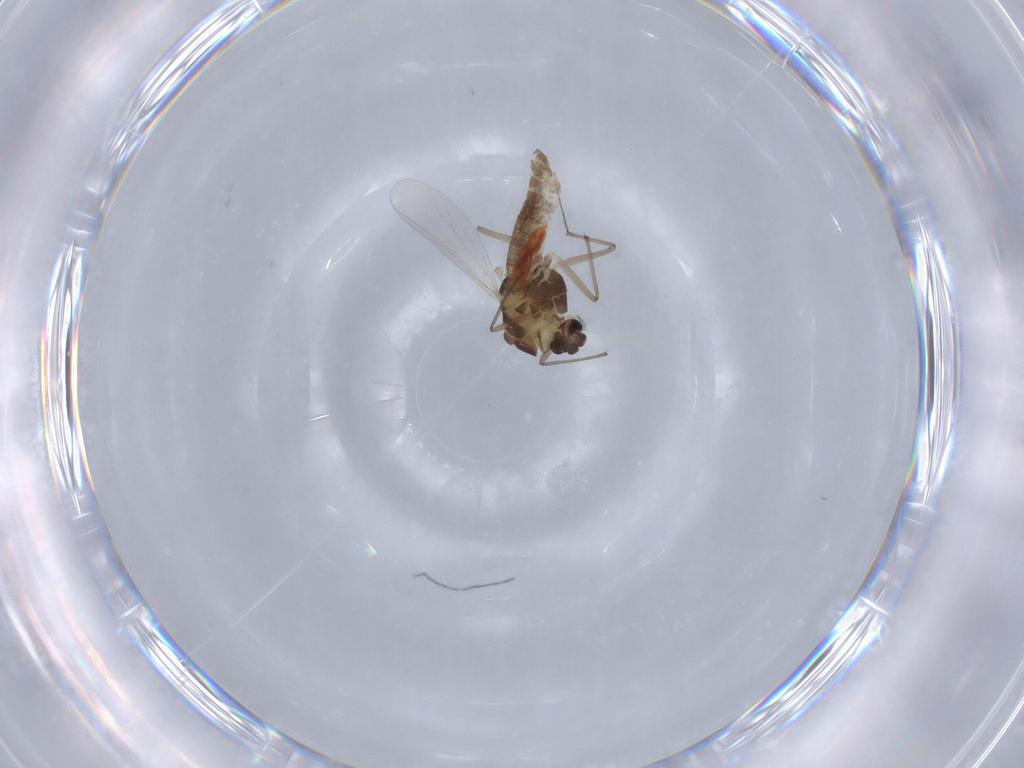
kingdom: Animalia
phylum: Arthropoda
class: Insecta
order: Diptera
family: Chironomidae
